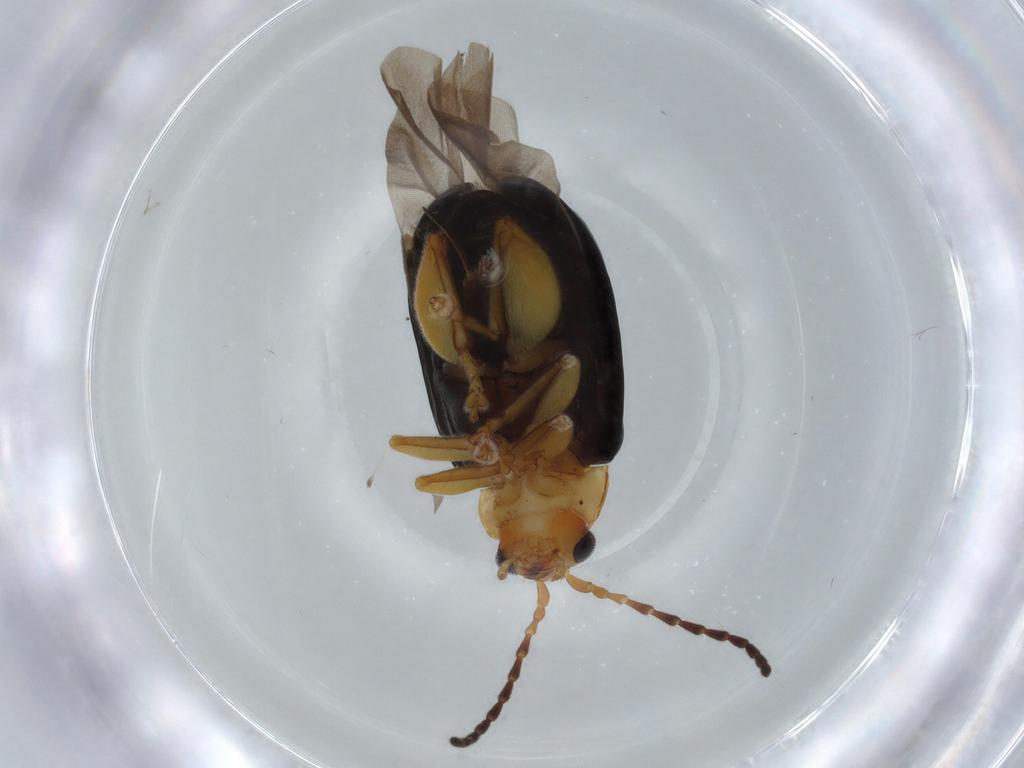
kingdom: Animalia
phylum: Arthropoda
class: Insecta
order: Coleoptera
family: Chrysomelidae
